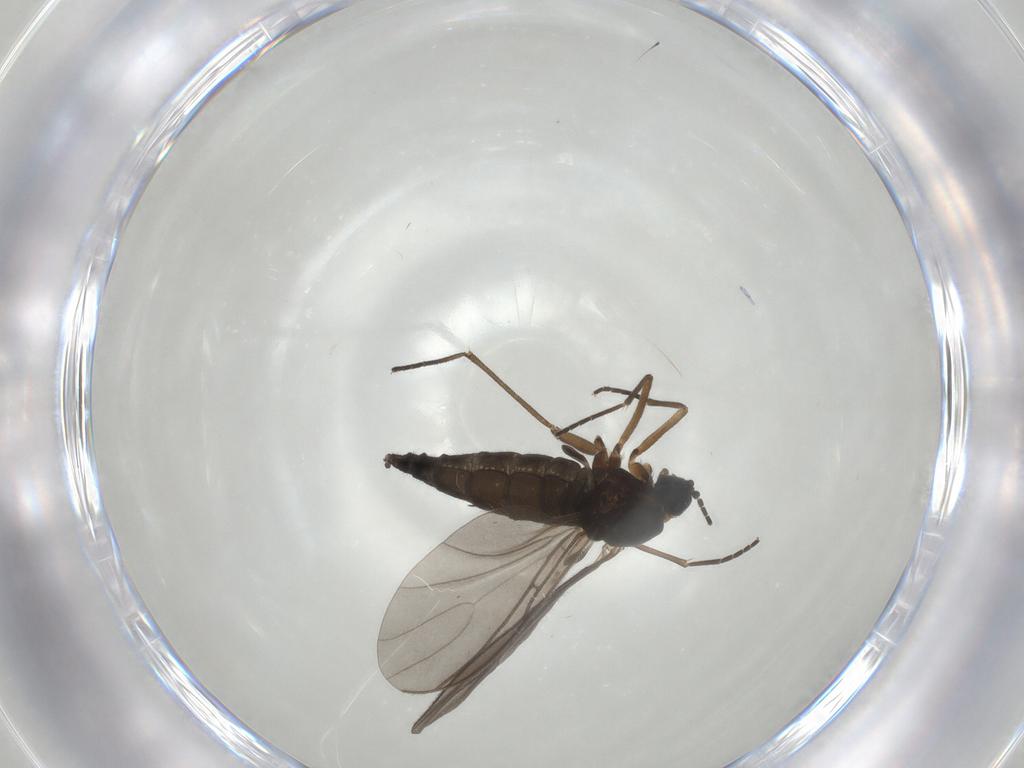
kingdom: Animalia
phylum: Arthropoda
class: Insecta
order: Diptera
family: Sciaridae
